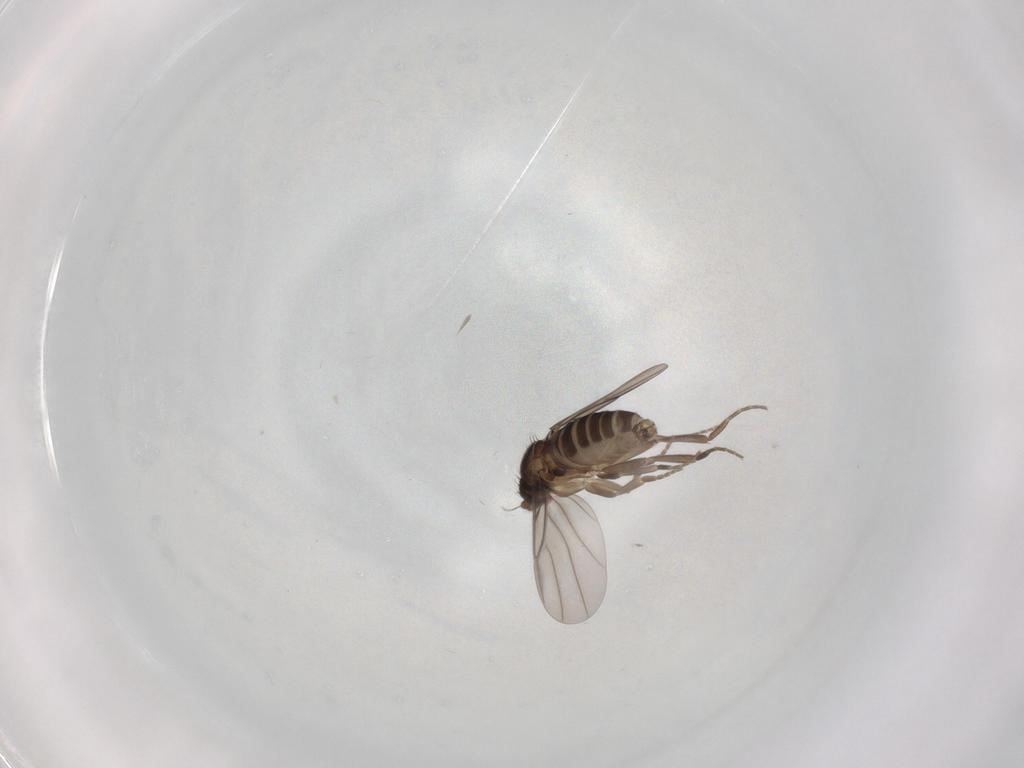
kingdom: Animalia
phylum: Arthropoda
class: Insecta
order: Diptera
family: Phoridae
